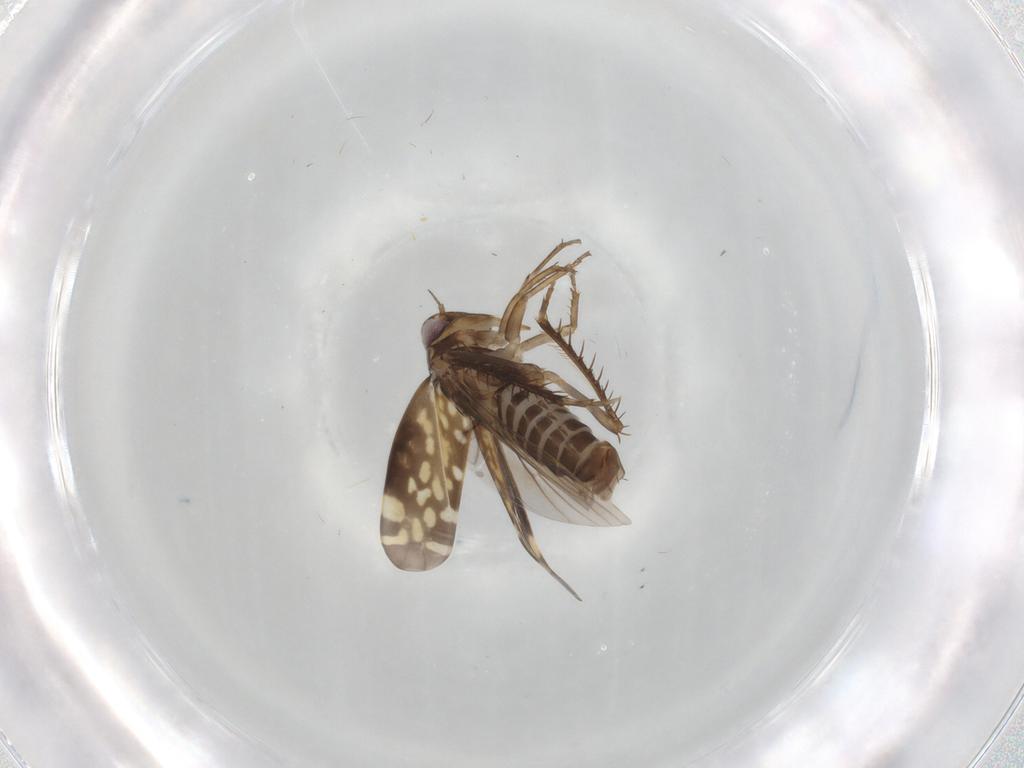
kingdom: Animalia
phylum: Arthropoda
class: Insecta
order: Hemiptera
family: Cicadellidae
